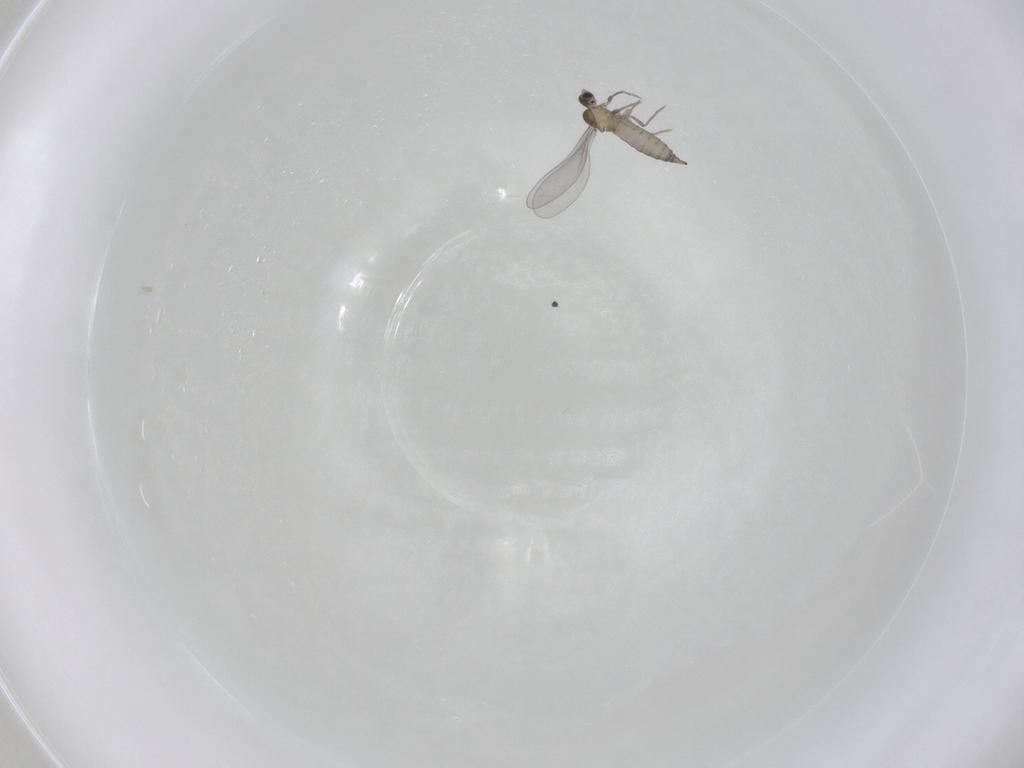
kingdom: Animalia
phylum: Arthropoda
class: Insecta
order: Diptera
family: Cecidomyiidae
